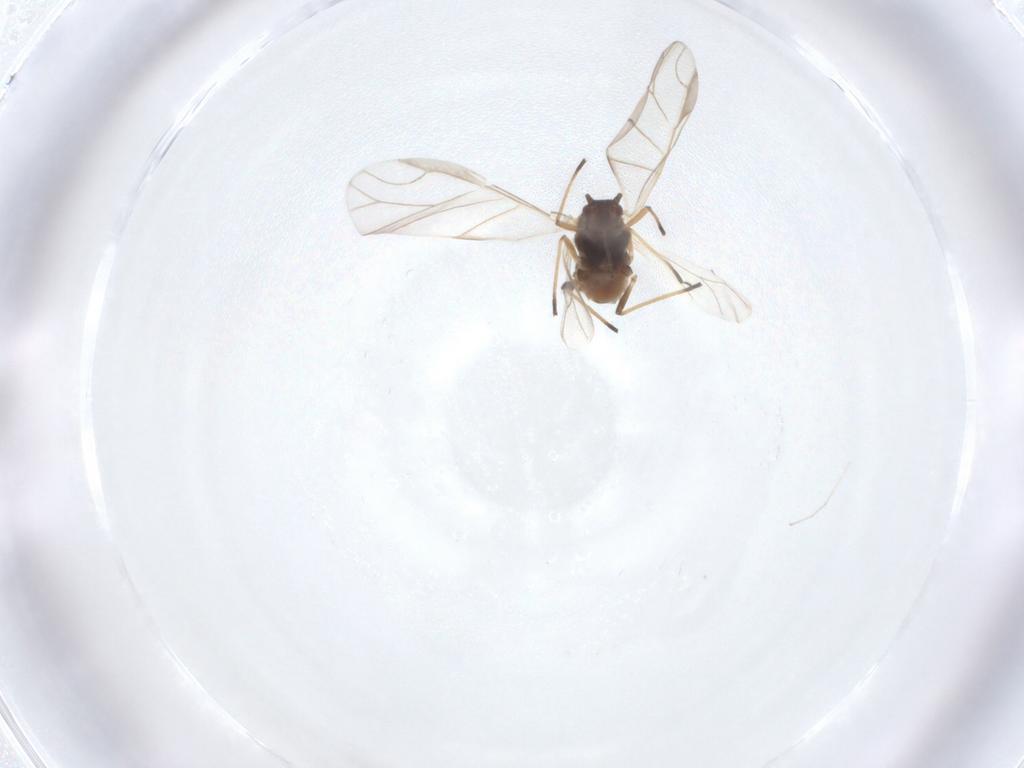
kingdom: Animalia
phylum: Arthropoda
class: Insecta
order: Hemiptera
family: Aphididae
